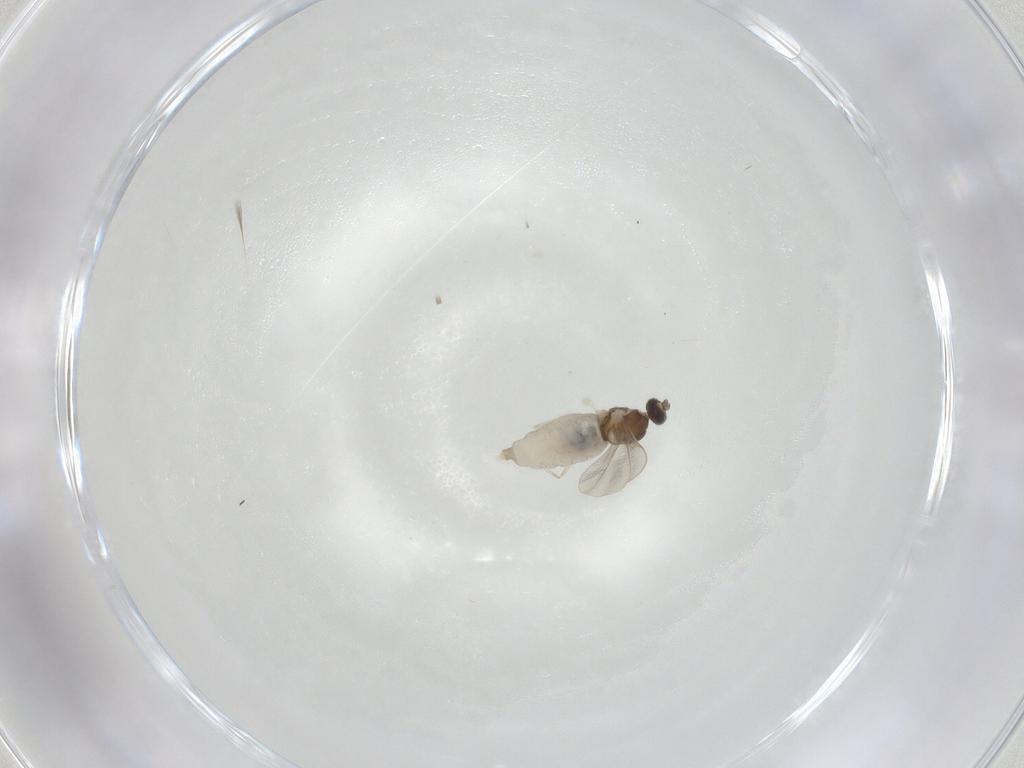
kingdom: Animalia
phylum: Arthropoda
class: Insecta
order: Diptera
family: Cecidomyiidae
